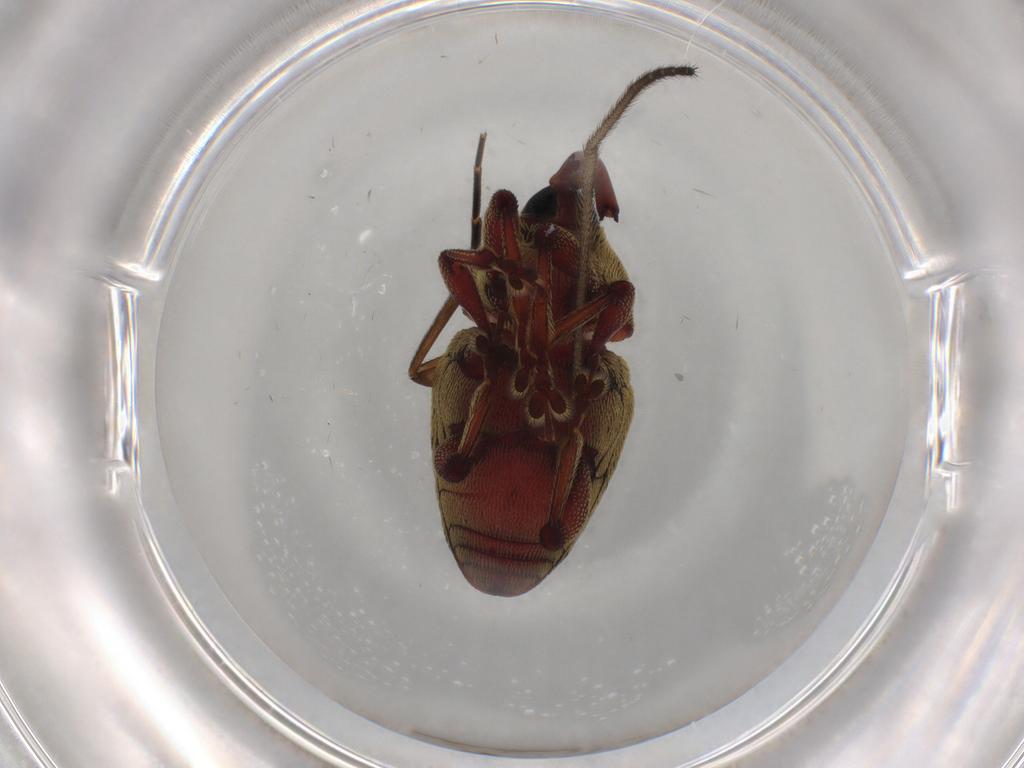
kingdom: Animalia
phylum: Arthropoda
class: Insecta
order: Coleoptera
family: Curculionidae
